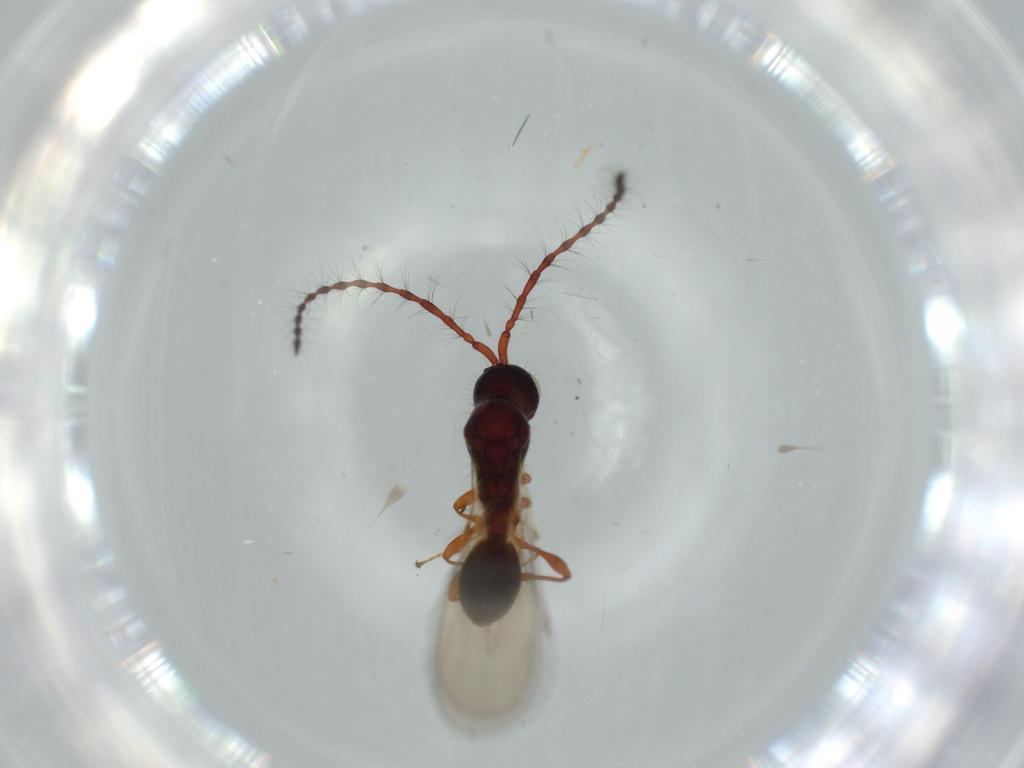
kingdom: Animalia
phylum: Arthropoda
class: Insecta
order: Hymenoptera
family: Diapriidae
